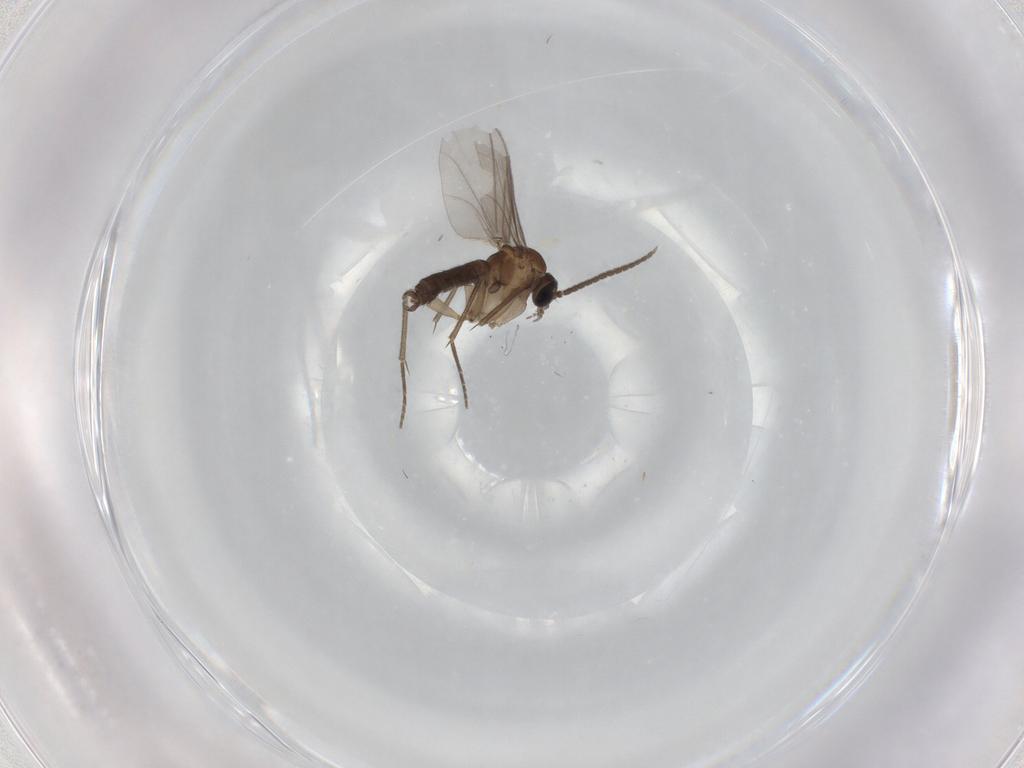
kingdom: Animalia
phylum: Arthropoda
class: Insecta
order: Diptera
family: Sciaridae
